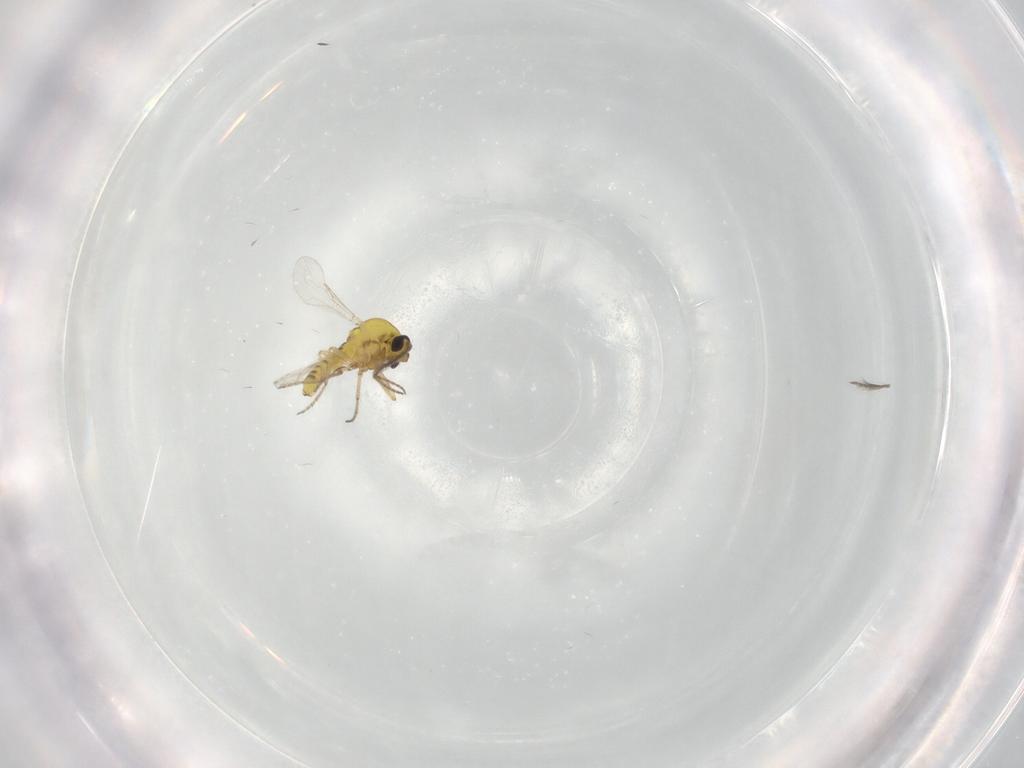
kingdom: Animalia
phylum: Arthropoda
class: Insecta
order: Diptera
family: Ceratopogonidae
